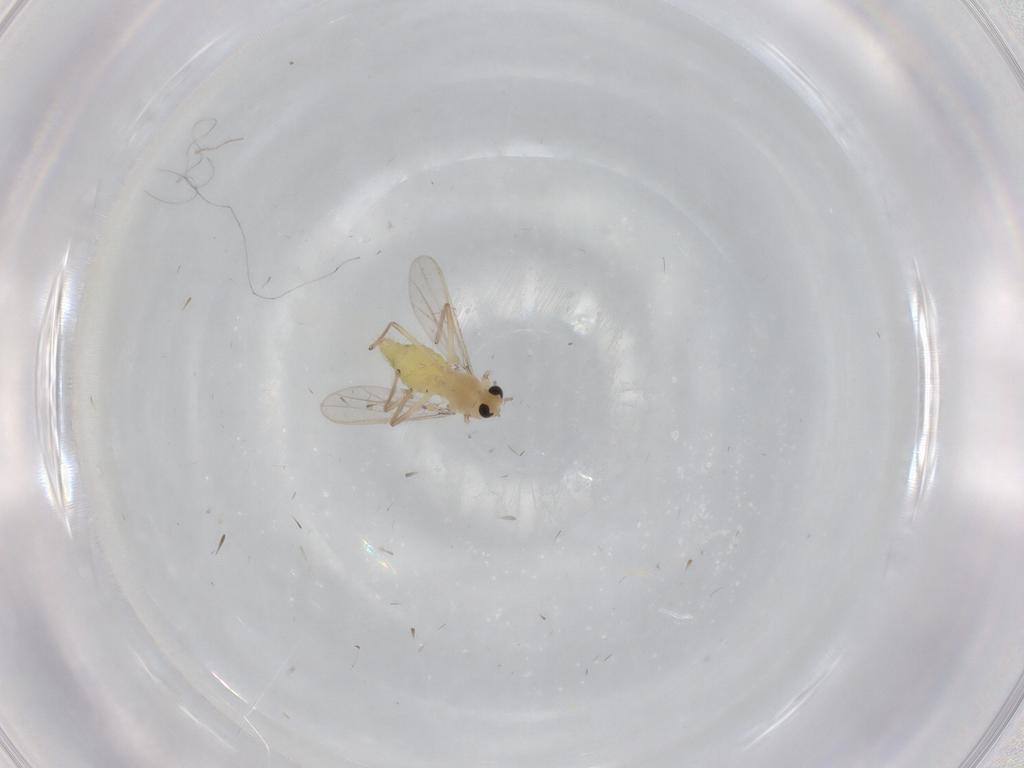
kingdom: Animalia
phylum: Arthropoda
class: Insecta
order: Diptera
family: Chironomidae
